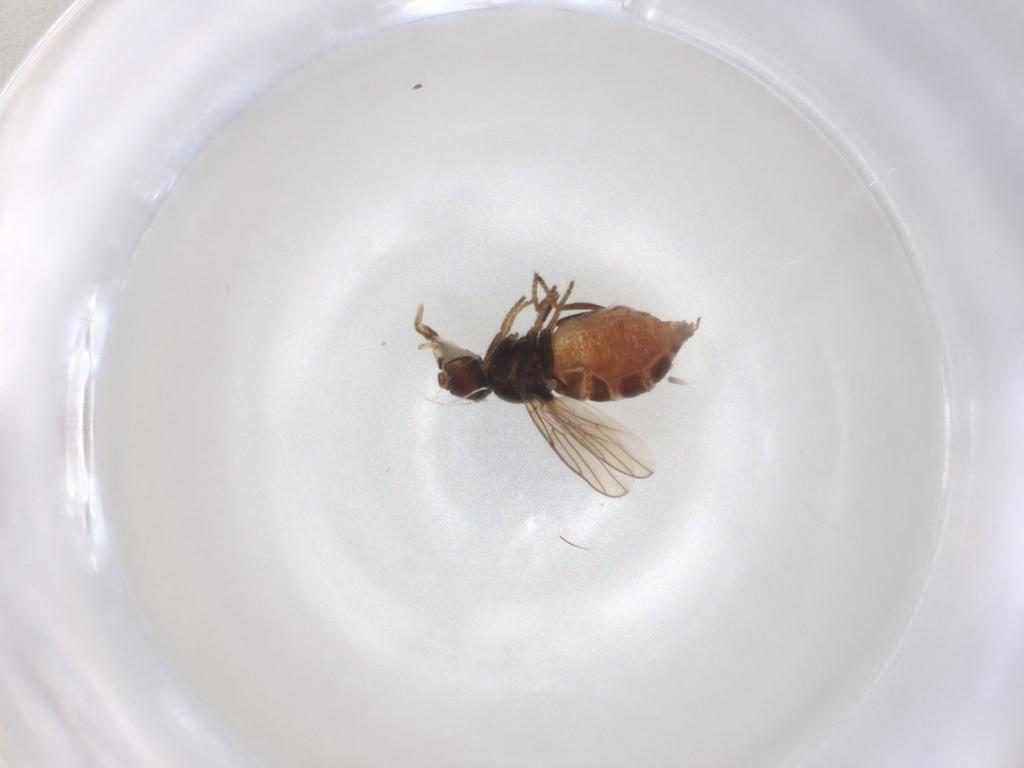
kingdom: Animalia
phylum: Arthropoda
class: Insecta
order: Diptera
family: Chloropidae
